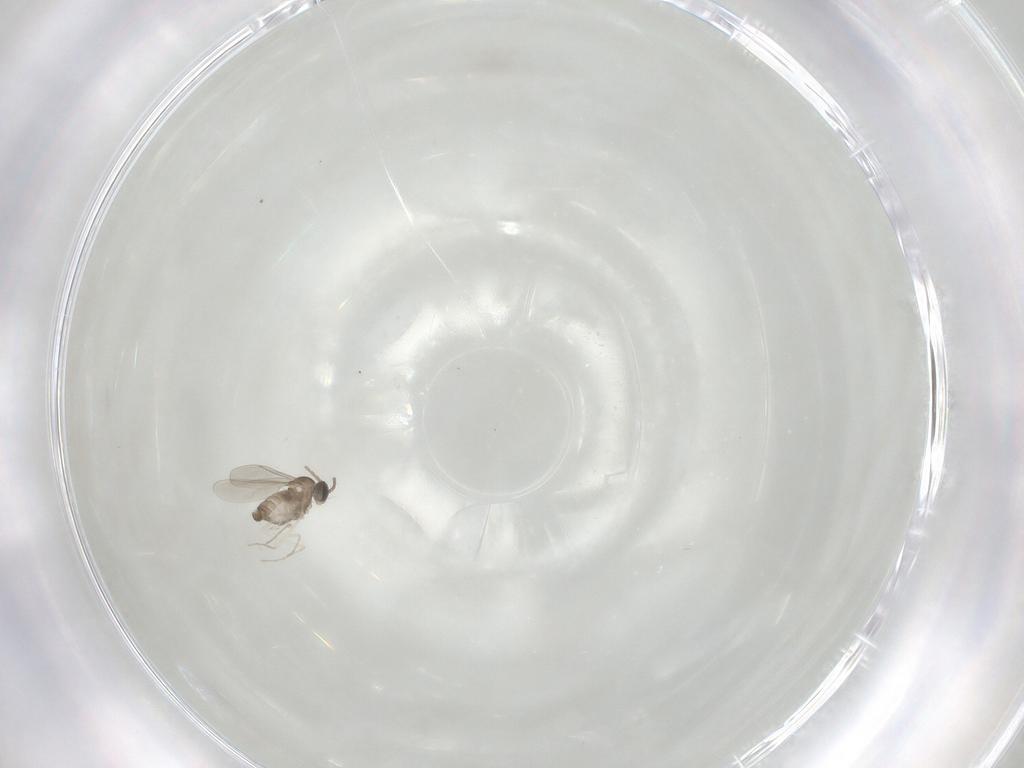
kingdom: Animalia
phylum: Arthropoda
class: Insecta
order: Diptera
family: Cecidomyiidae
